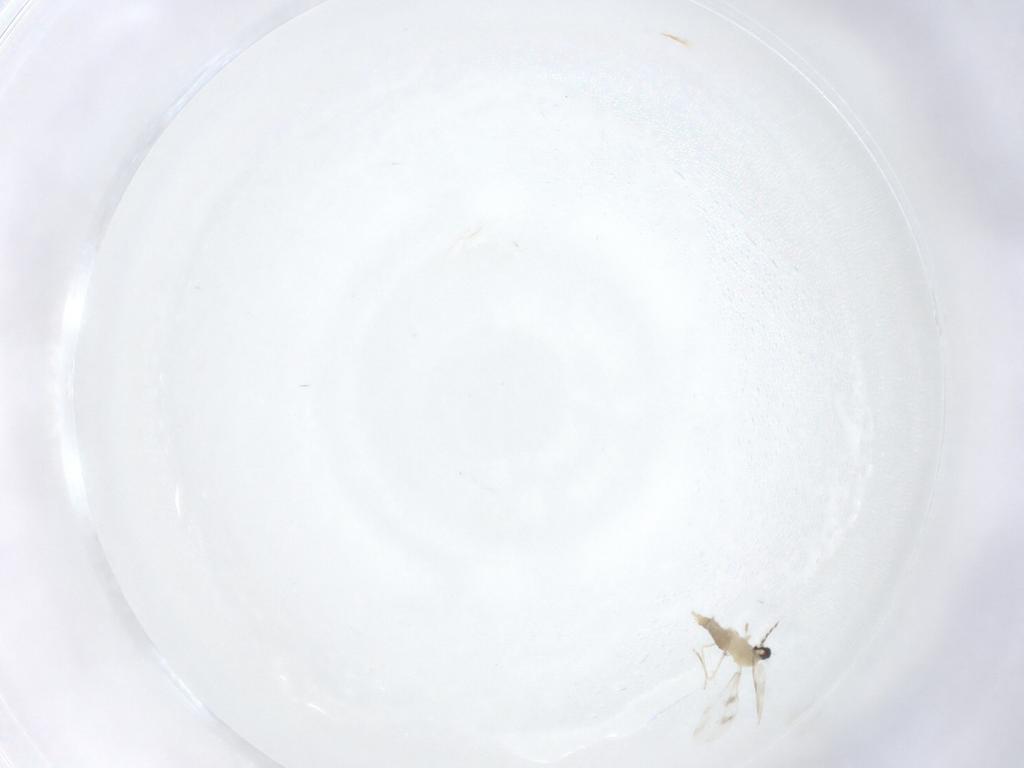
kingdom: Animalia
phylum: Arthropoda
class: Insecta
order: Diptera
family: Cecidomyiidae
